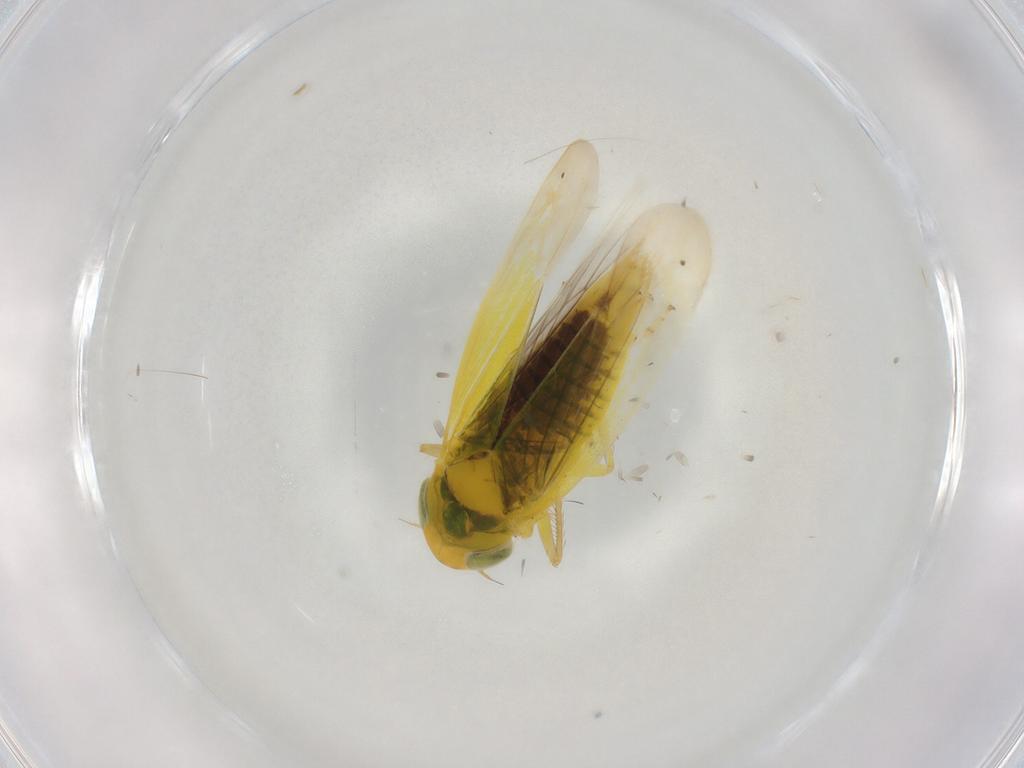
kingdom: Animalia
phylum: Arthropoda
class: Insecta
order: Hemiptera
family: Cicadellidae
